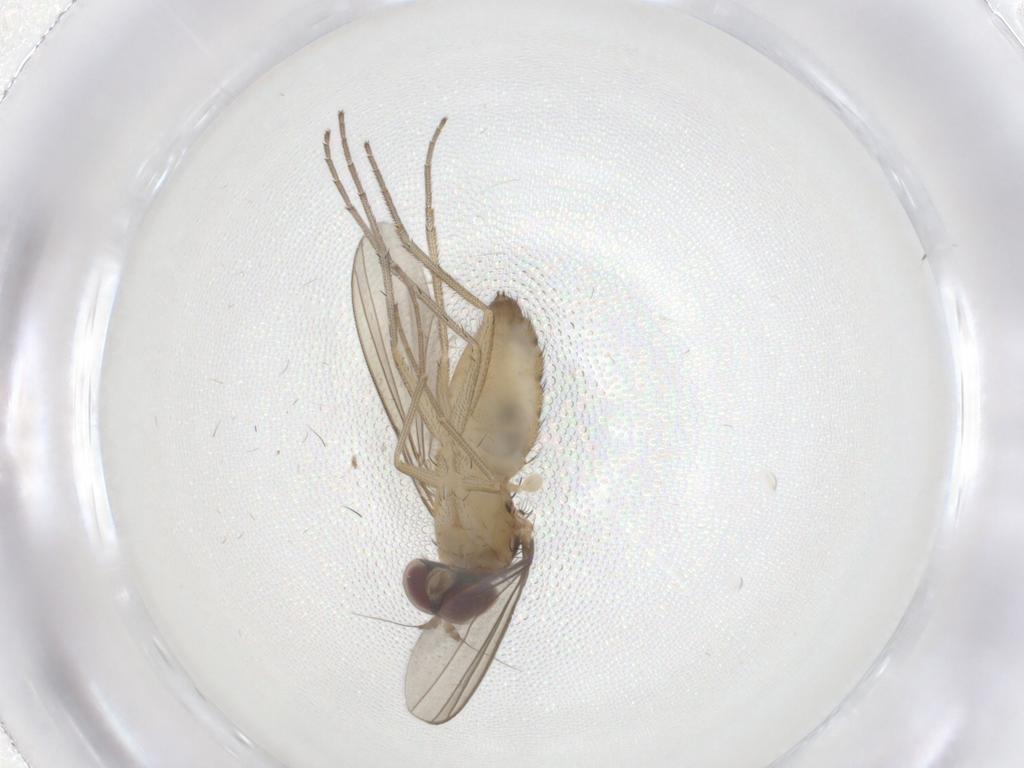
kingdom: Animalia
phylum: Arthropoda
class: Insecta
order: Diptera
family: Dolichopodidae
